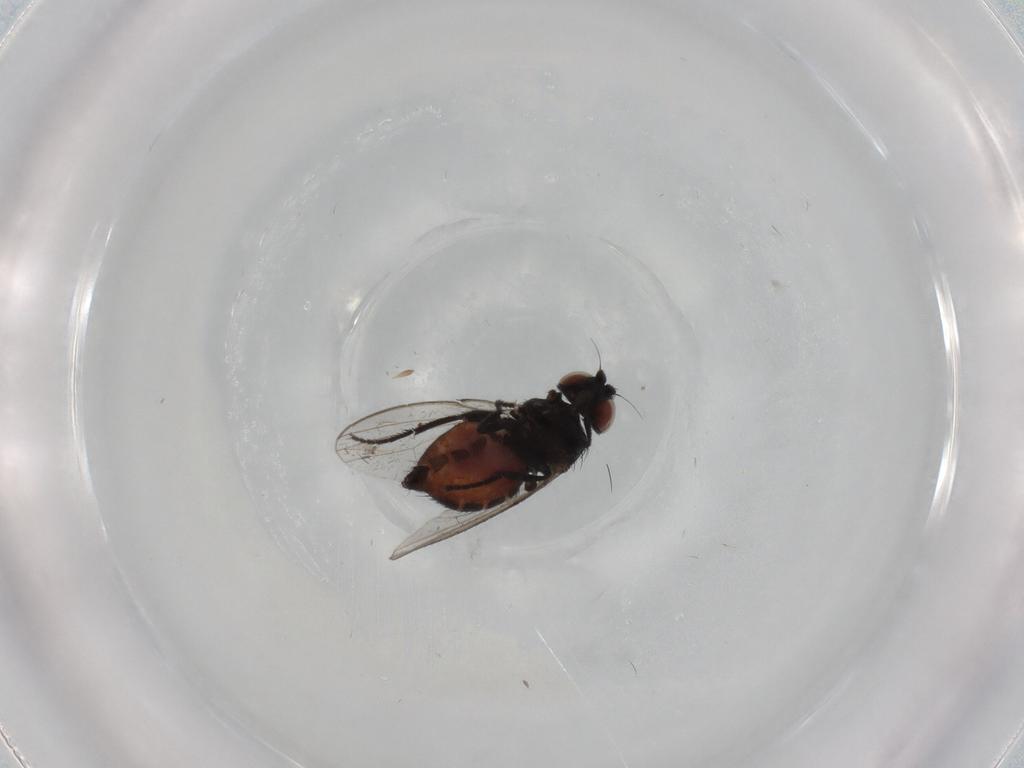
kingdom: Animalia
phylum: Arthropoda
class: Insecta
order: Diptera
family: Milichiidae
